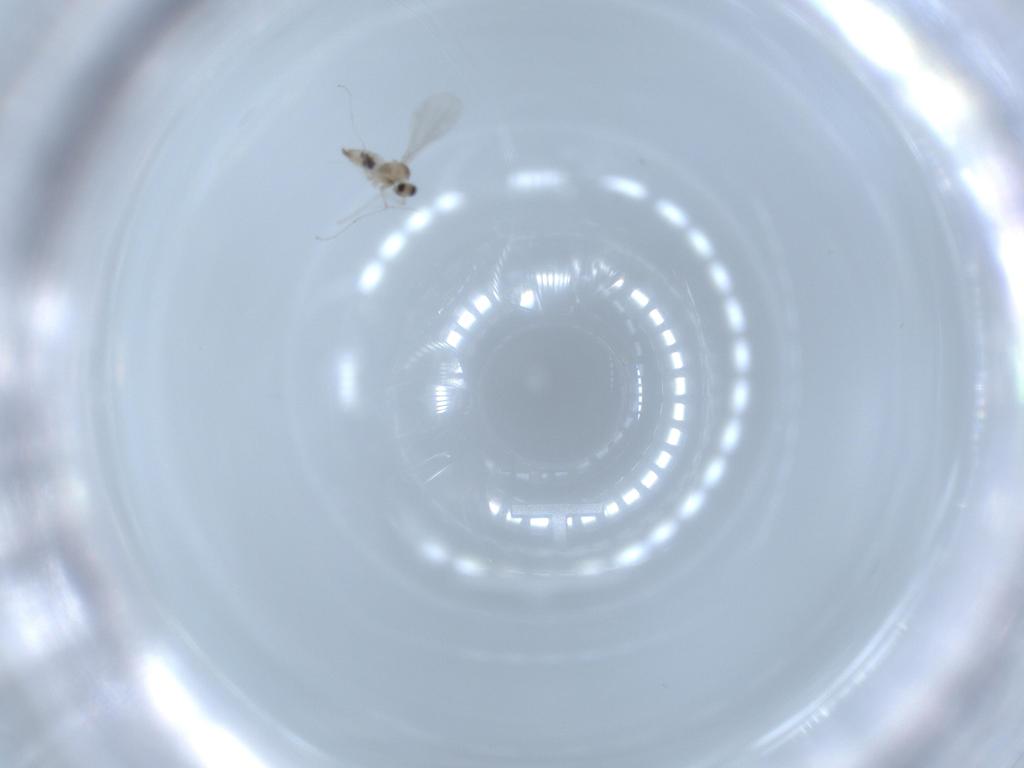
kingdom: Animalia
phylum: Arthropoda
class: Insecta
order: Diptera
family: Cecidomyiidae
